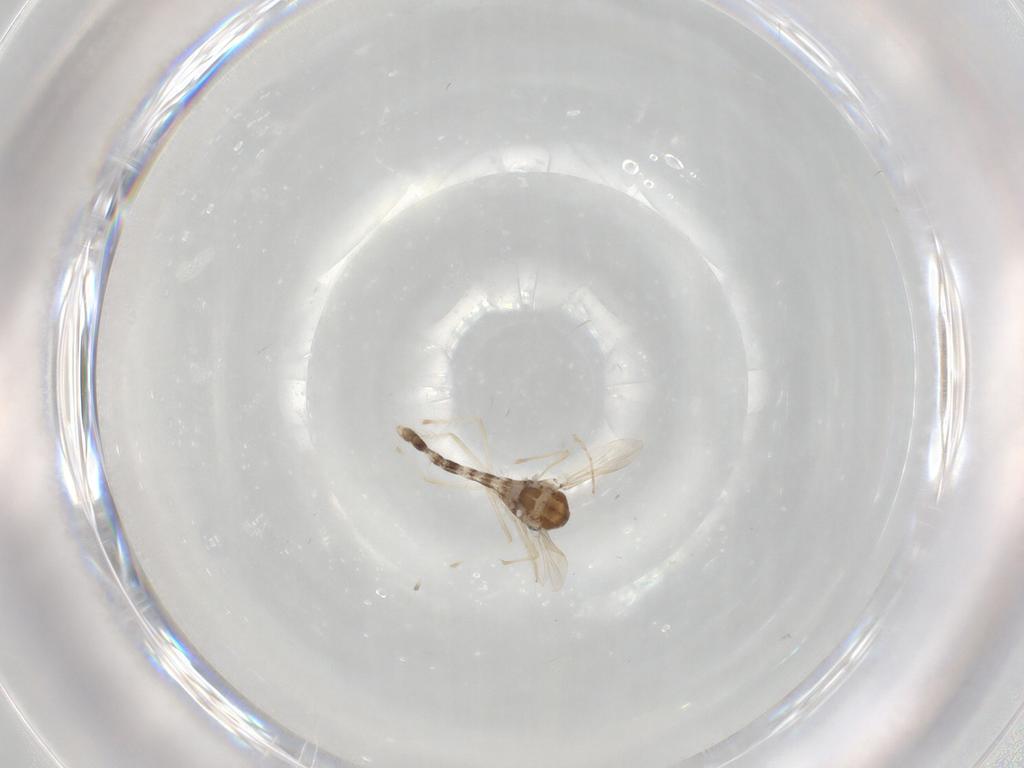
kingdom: Animalia
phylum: Arthropoda
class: Insecta
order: Diptera
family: Chironomidae
